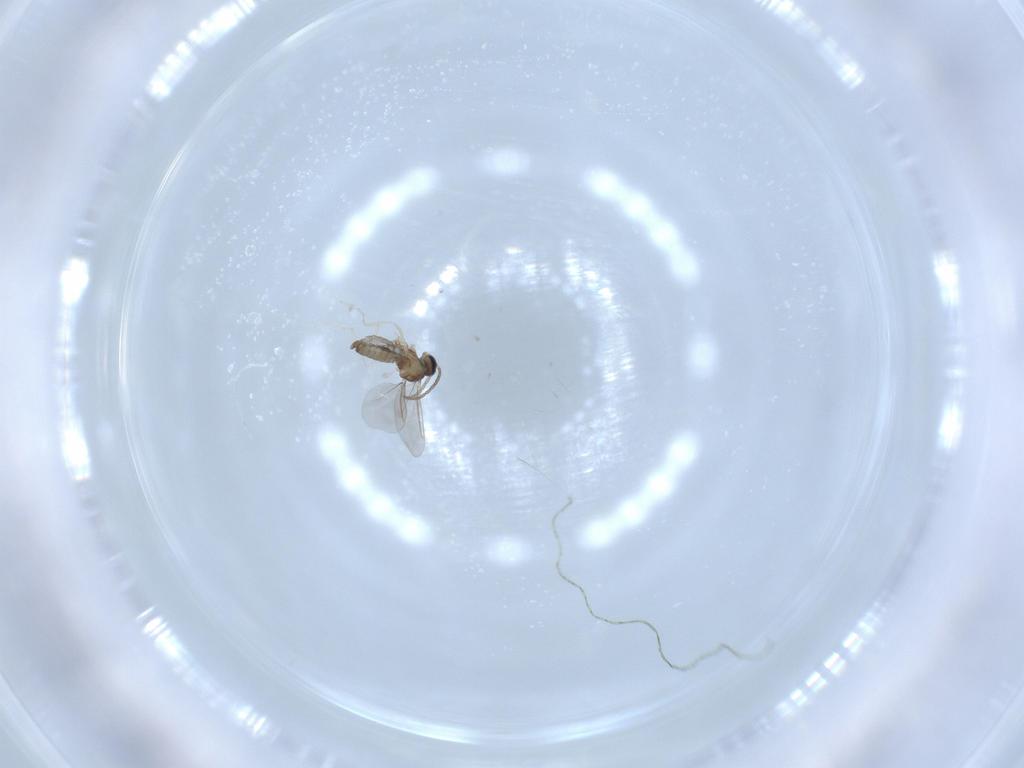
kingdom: Animalia
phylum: Arthropoda
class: Insecta
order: Diptera
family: Cecidomyiidae
